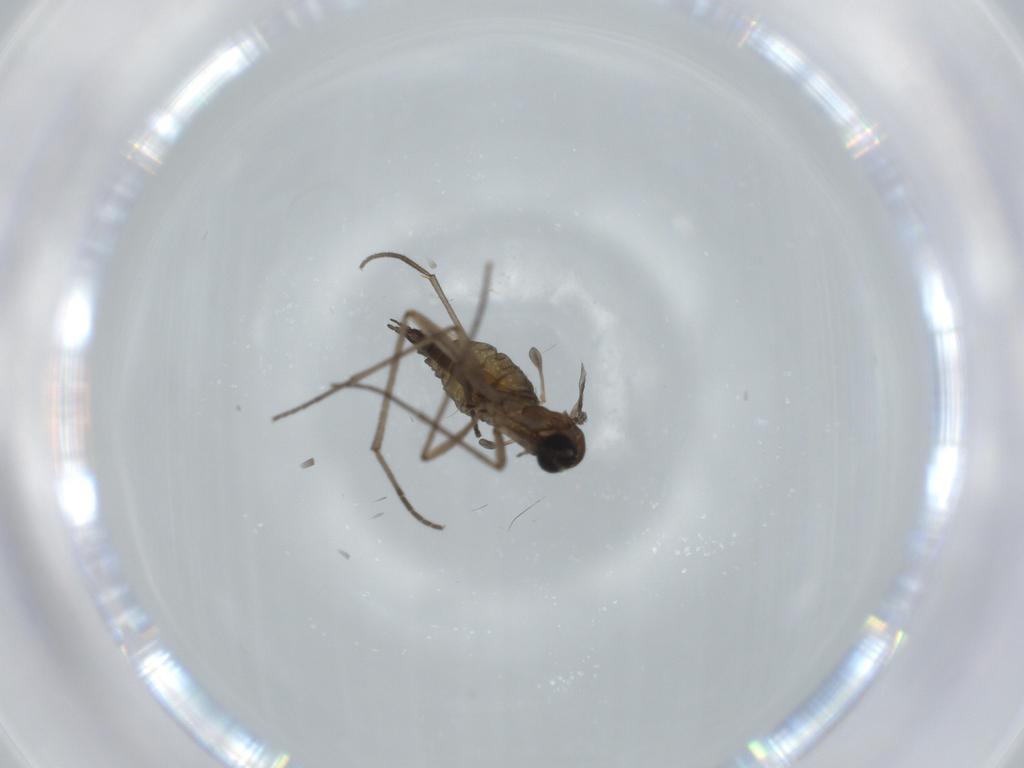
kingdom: Animalia
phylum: Arthropoda
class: Insecta
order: Diptera
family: Sciaridae
